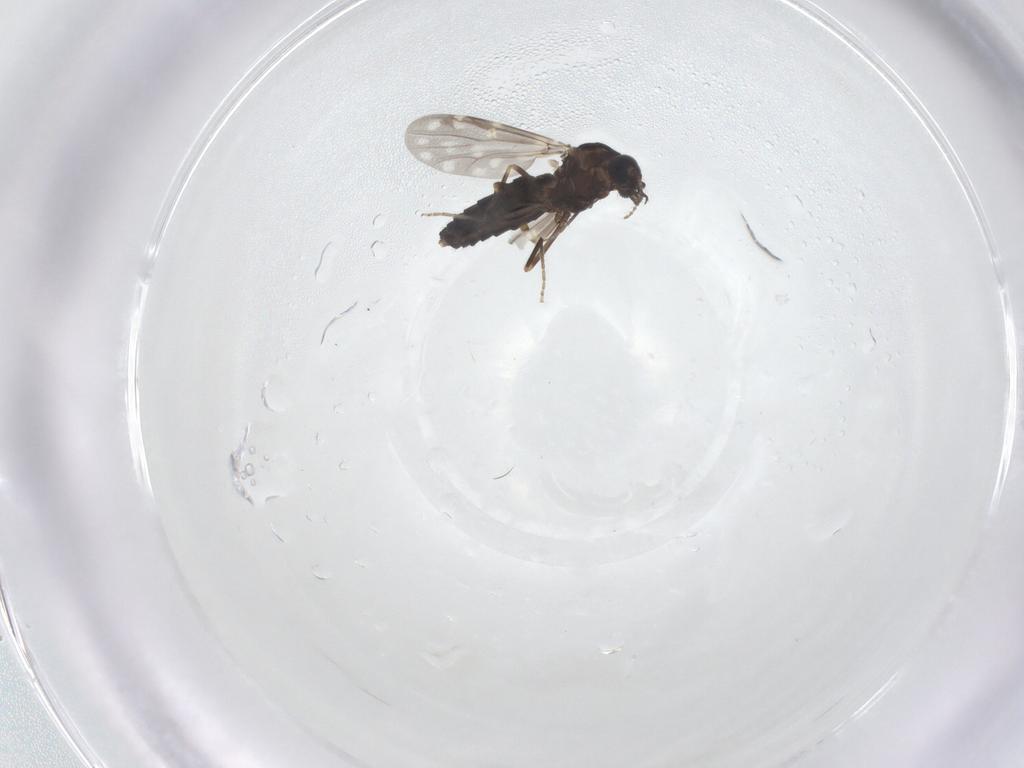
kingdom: Animalia
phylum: Arthropoda
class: Insecta
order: Diptera
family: Ceratopogonidae
